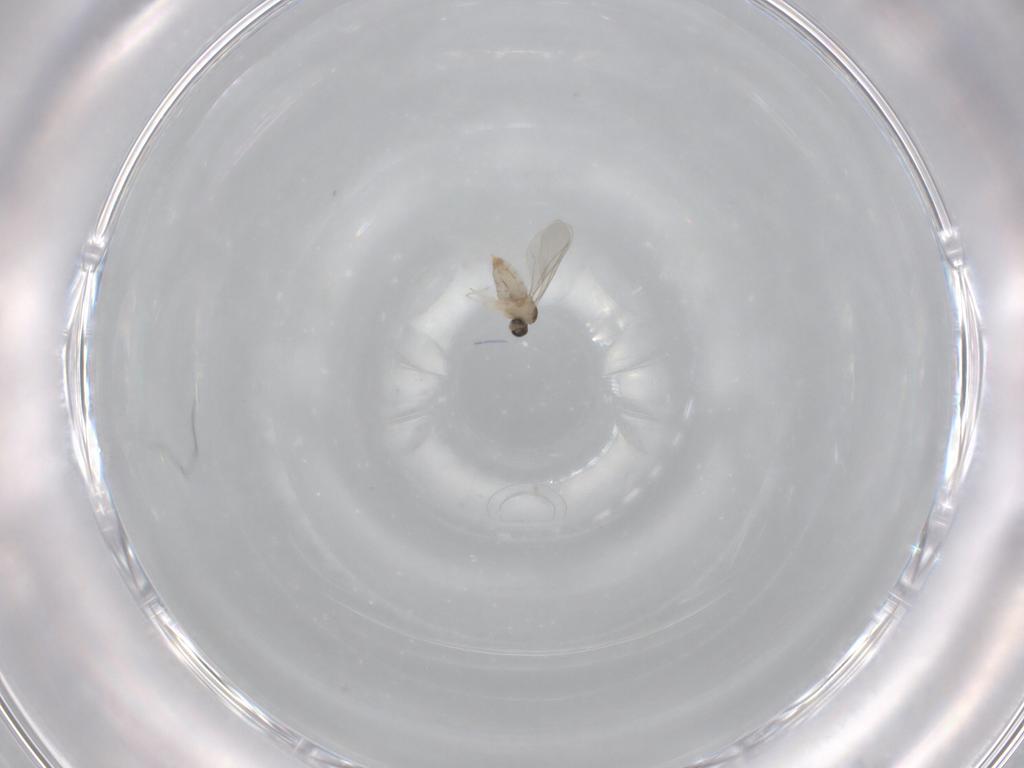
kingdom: Animalia
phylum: Arthropoda
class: Insecta
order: Diptera
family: Cecidomyiidae
